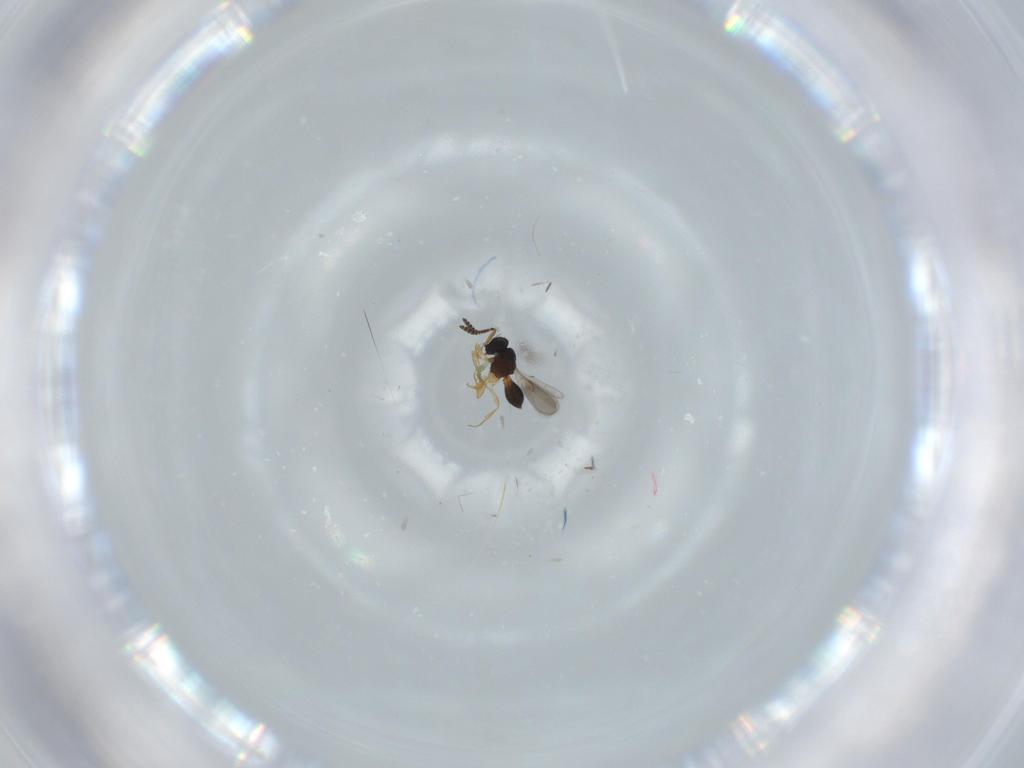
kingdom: Animalia
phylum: Arthropoda
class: Insecta
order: Hymenoptera
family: Scelionidae
